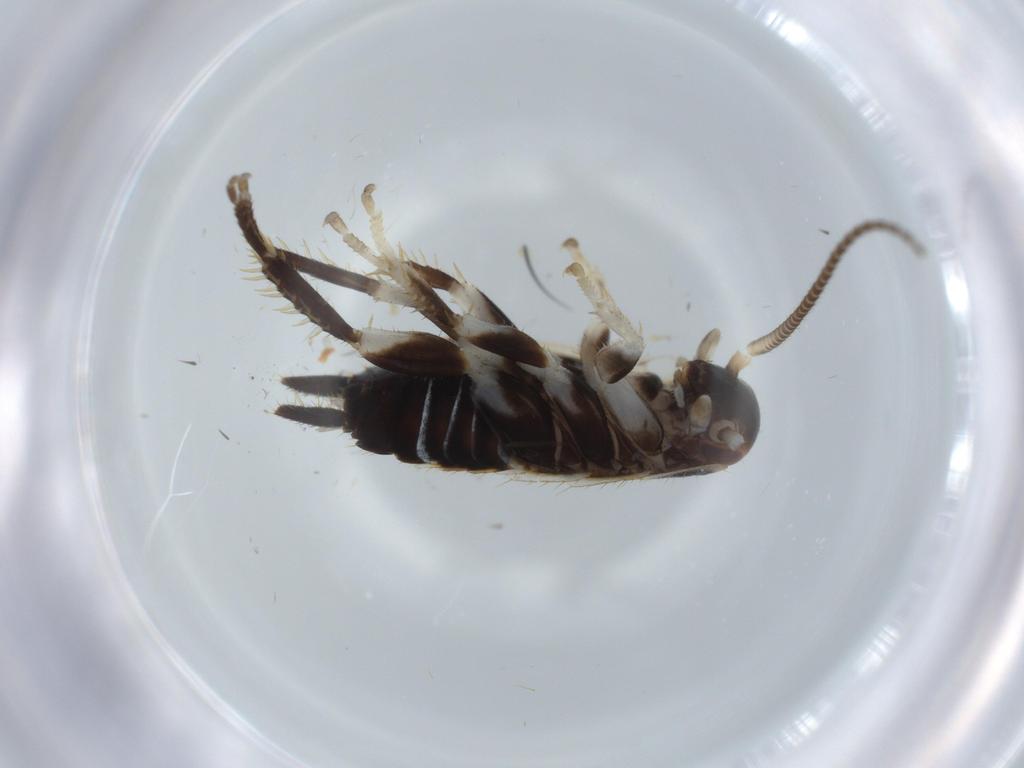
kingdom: Animalia
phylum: Arthropoda
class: Insecta
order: Blattodea
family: Ectobiidae
